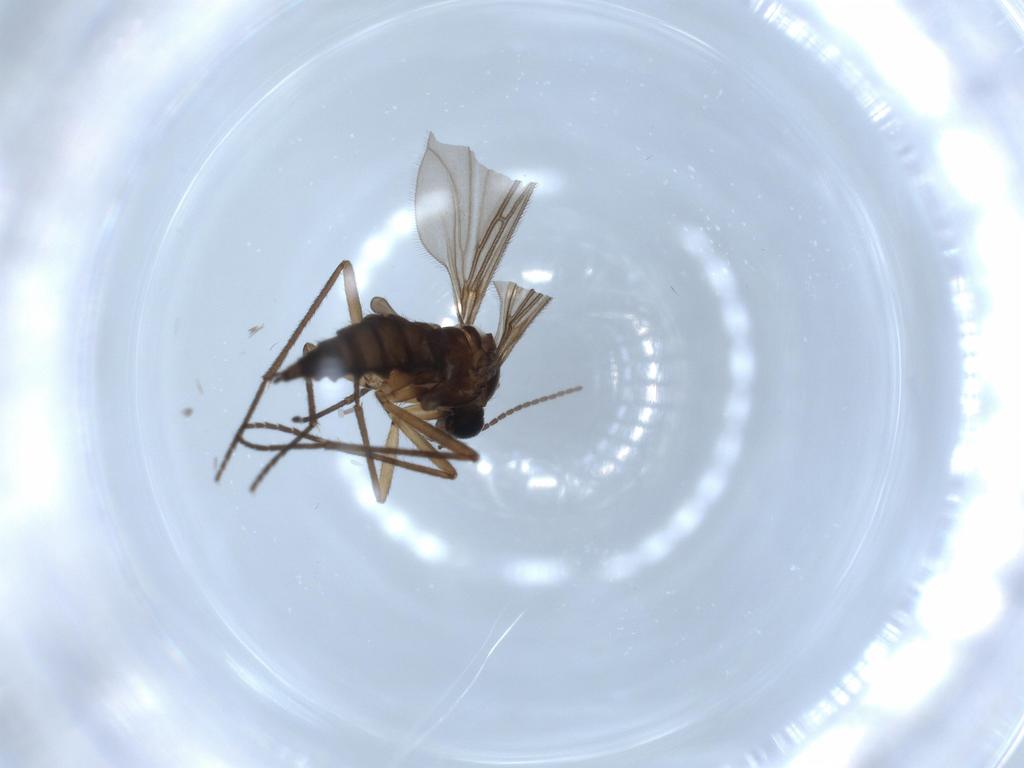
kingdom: Animalia
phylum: Arthropoda
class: Insecta
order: Diptera
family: Sciaridae
